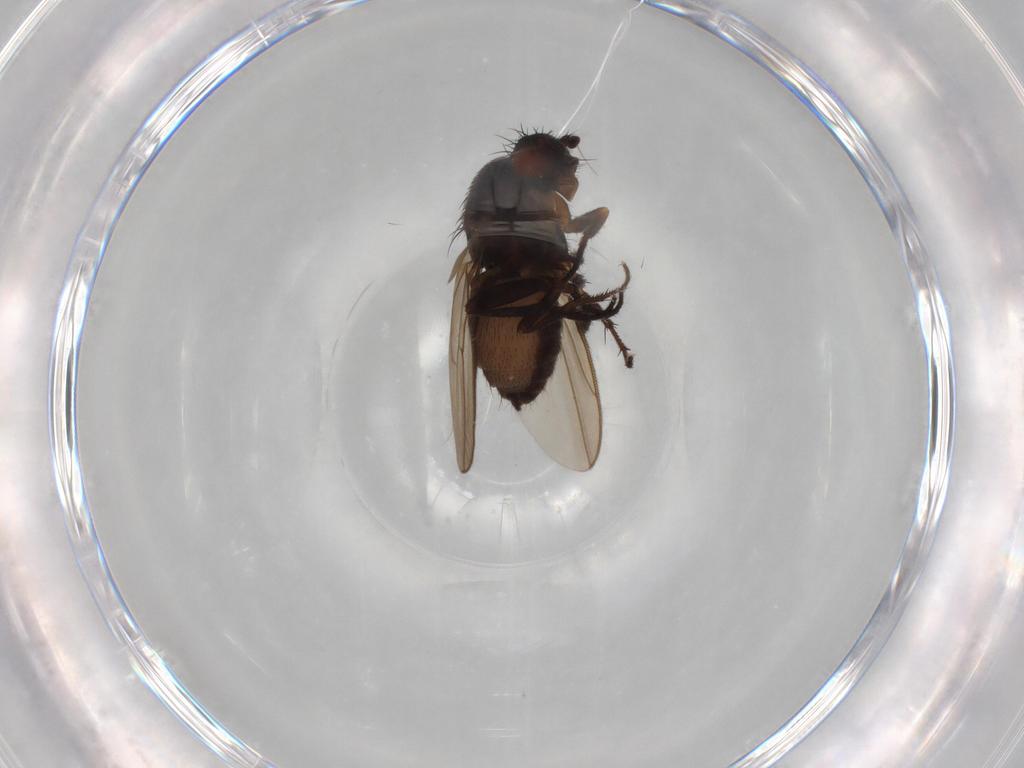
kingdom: Animalia
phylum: Arthropoda
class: Insecta
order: Diptera
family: Sphaeroceridae
